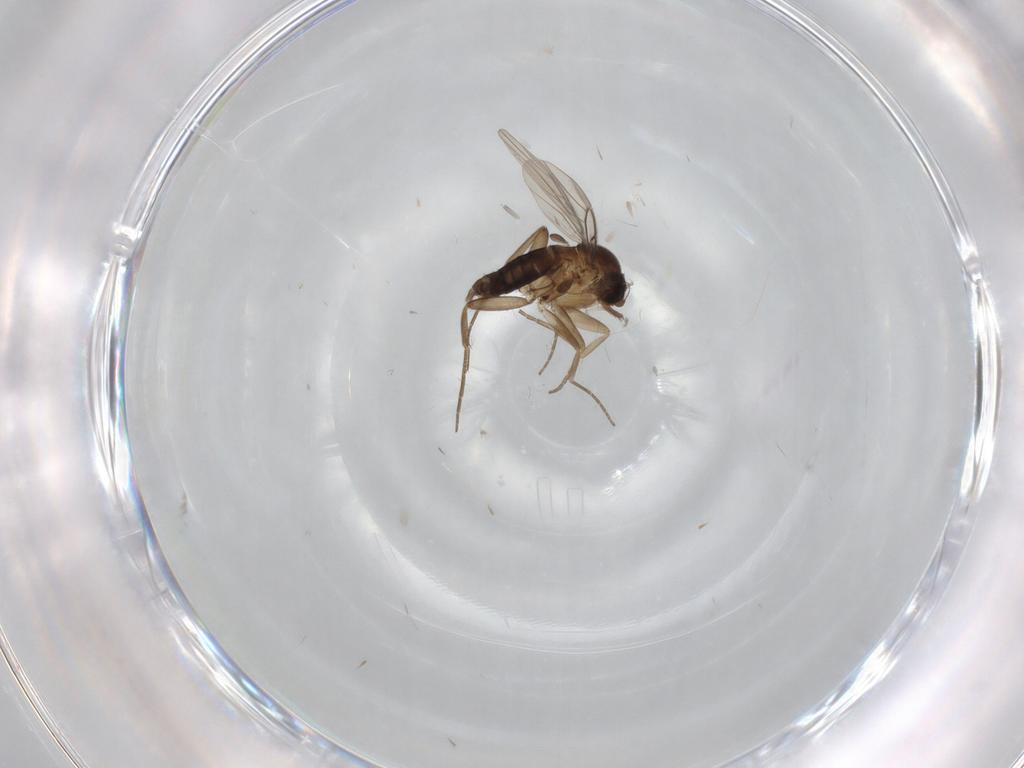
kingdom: Animalia
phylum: Arthropoda
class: Insecta
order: Diptera
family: Phoridae
